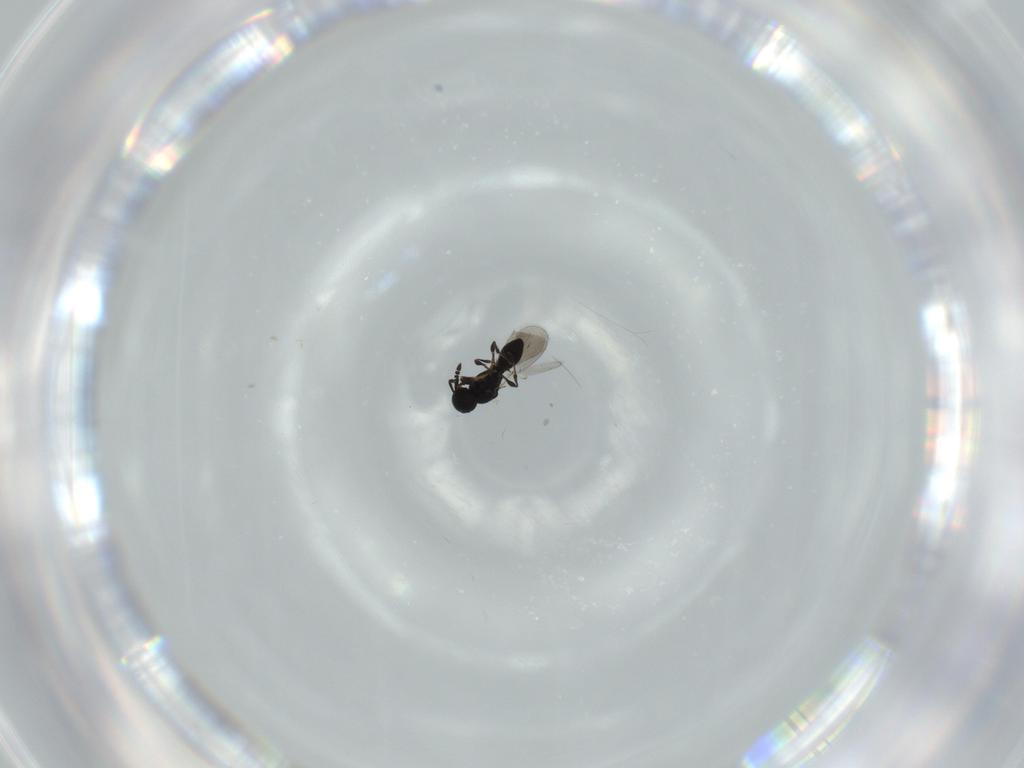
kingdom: Animalia
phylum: Arthropoda
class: Insecta
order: Hymenoptera
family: Platygastridae
